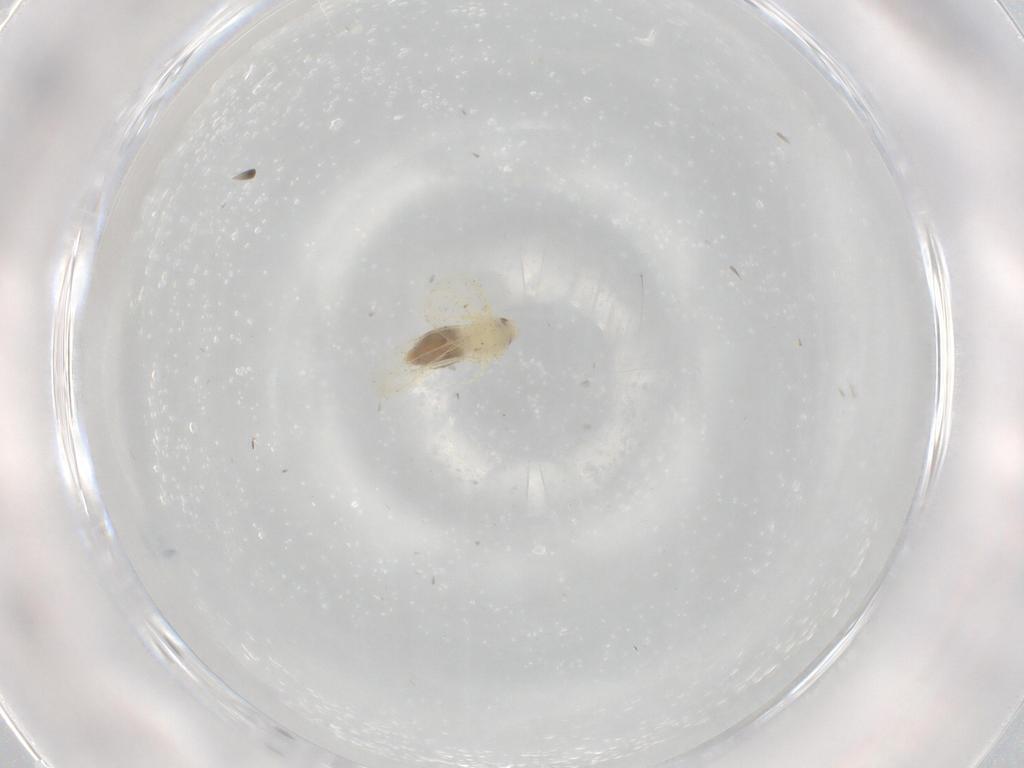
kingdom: Animalia
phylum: Arthropoda
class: Insecta
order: Hemiptera
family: Aleyrodidae
